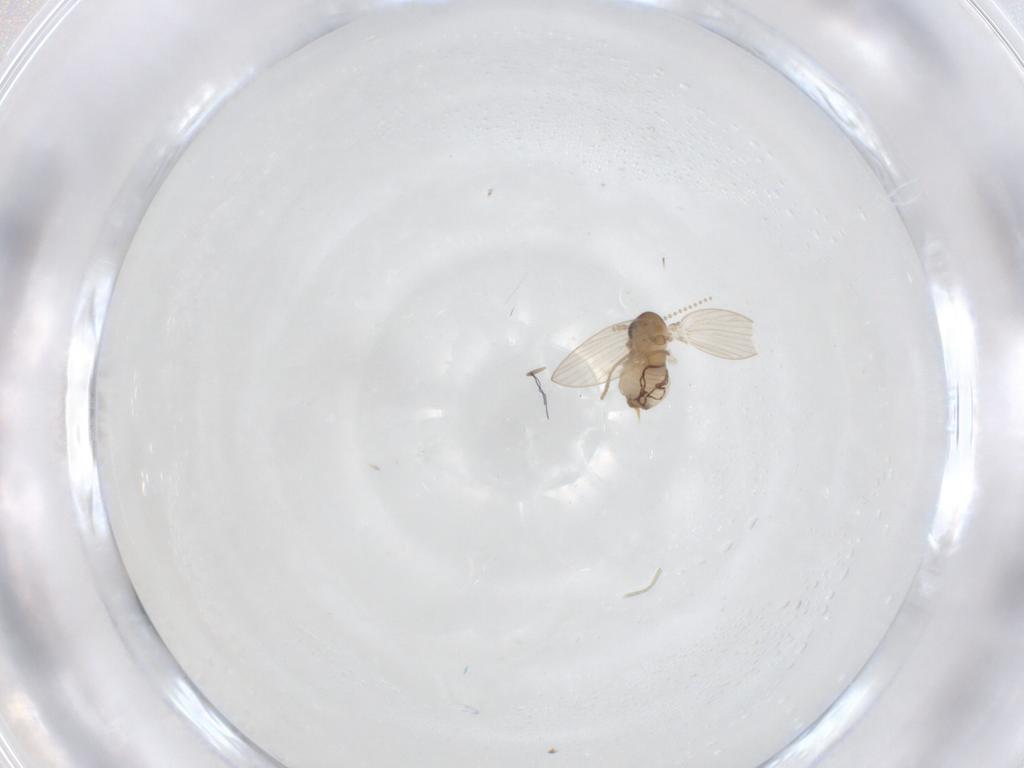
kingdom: Animalia
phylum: Arthropoda
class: Insecta
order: Diptera
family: Psychodidae
